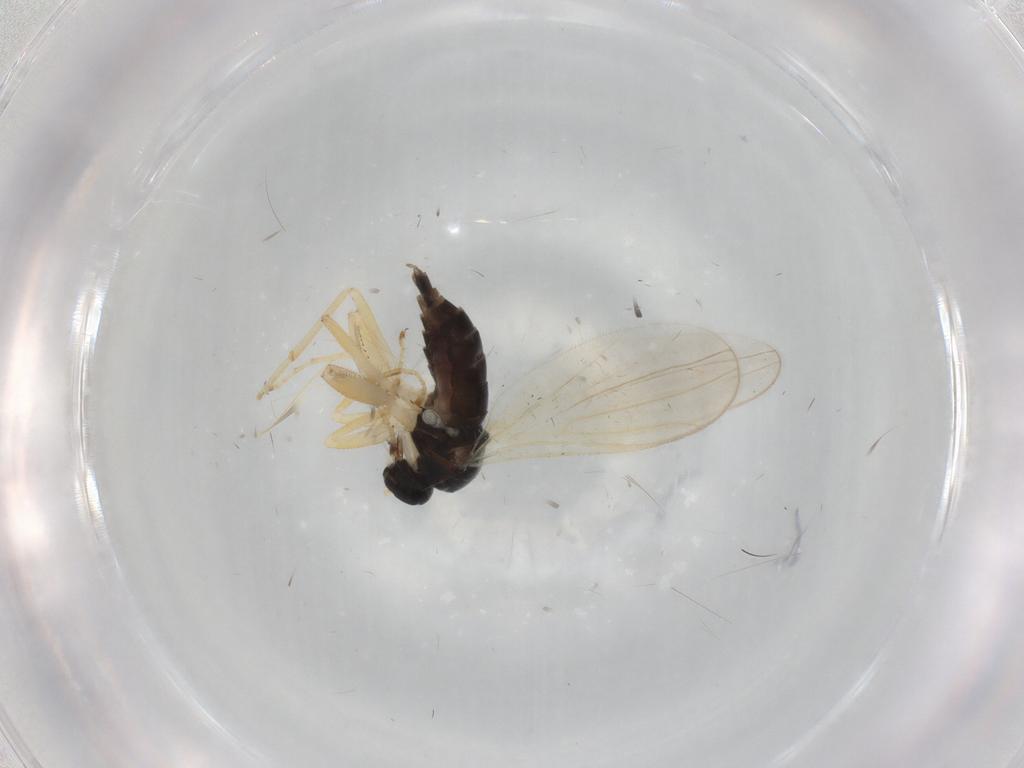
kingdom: Animalia
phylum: Arthropoda
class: Insecta
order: Diptera
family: Hybotidae
